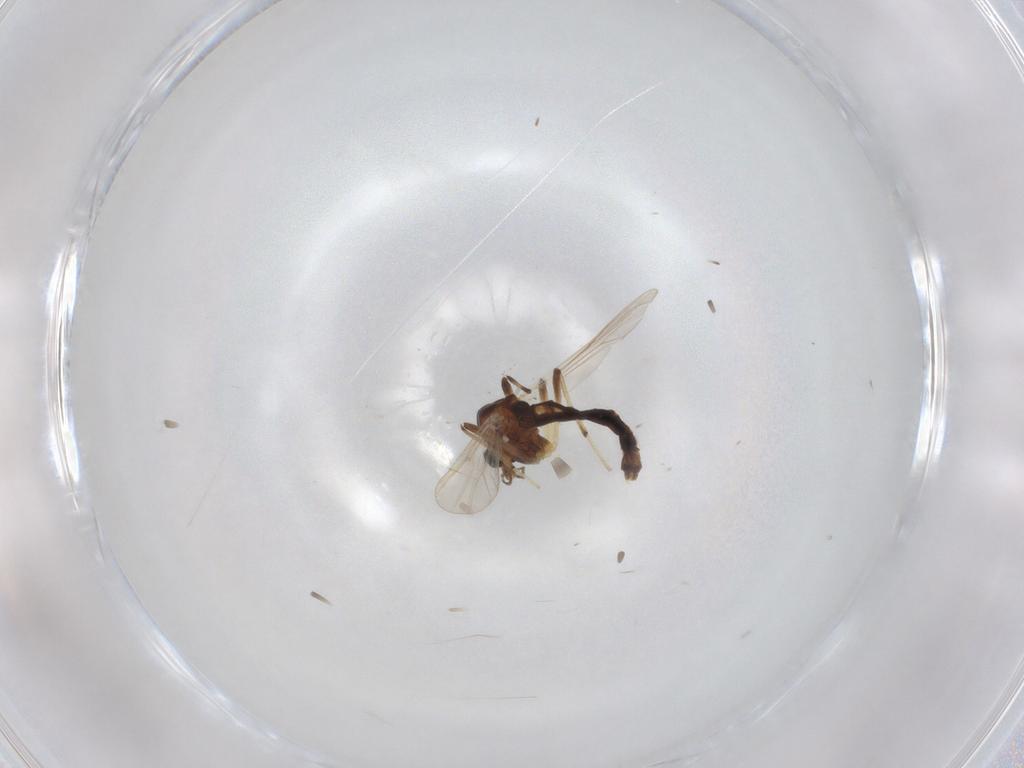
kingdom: Animalia
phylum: Arthropoda
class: Insecta
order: Diptera
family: Chironomidae
